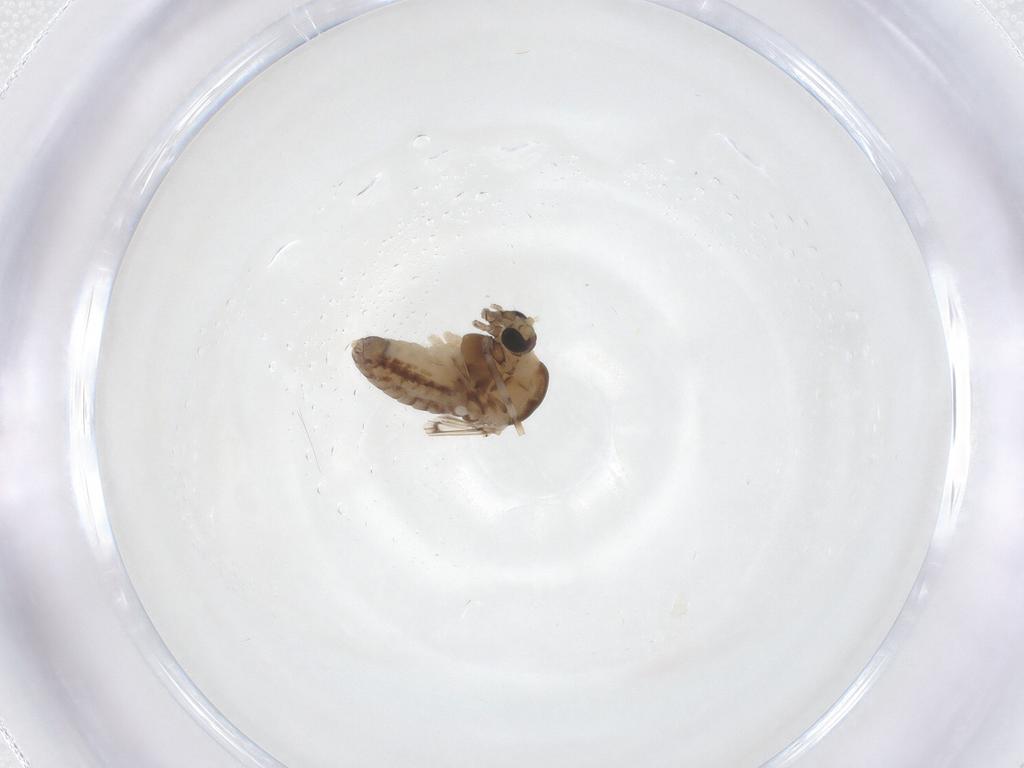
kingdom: Animalia
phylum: Arthropoda
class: Insecta
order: Diptera
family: Chironomidae
